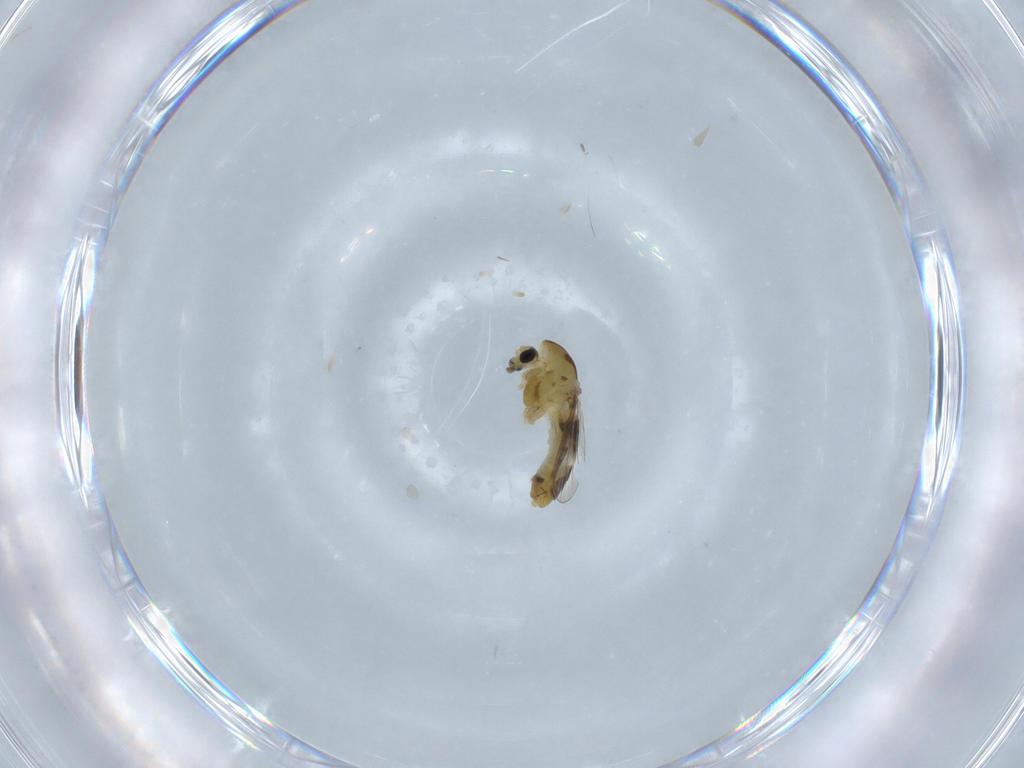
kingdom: Animalia
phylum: Arthropoda
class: Insecta
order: Diptera
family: Chironomidae
